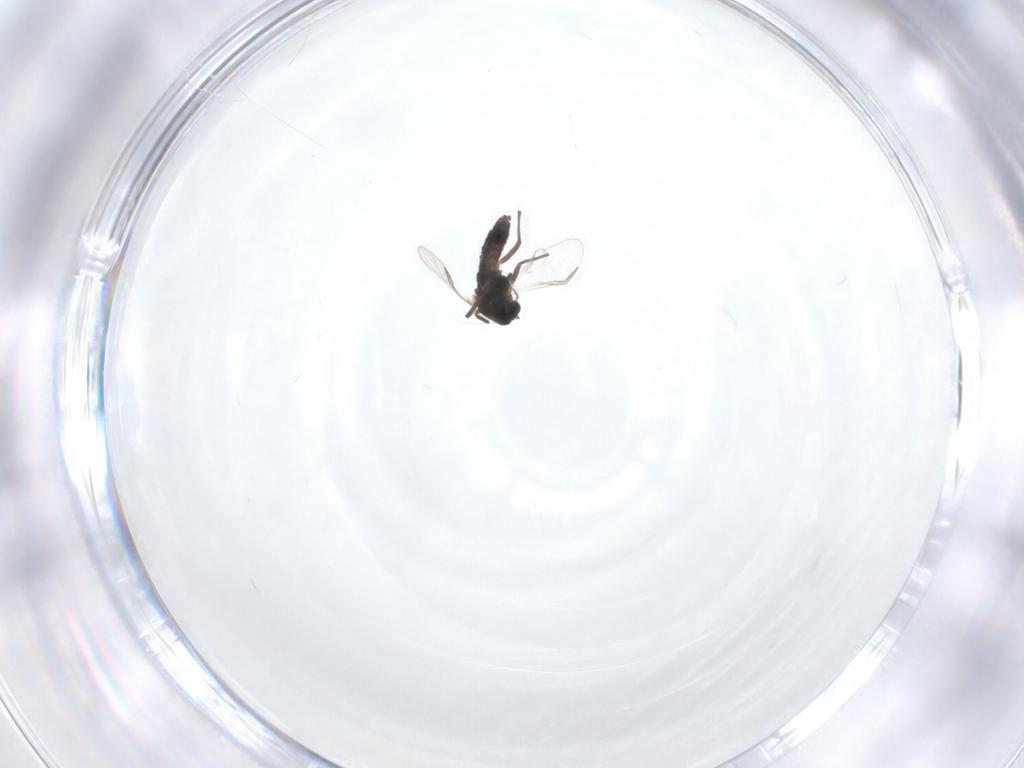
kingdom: Animalia
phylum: Arthropoda
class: Insecta
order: Diptera
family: Chironomidae
